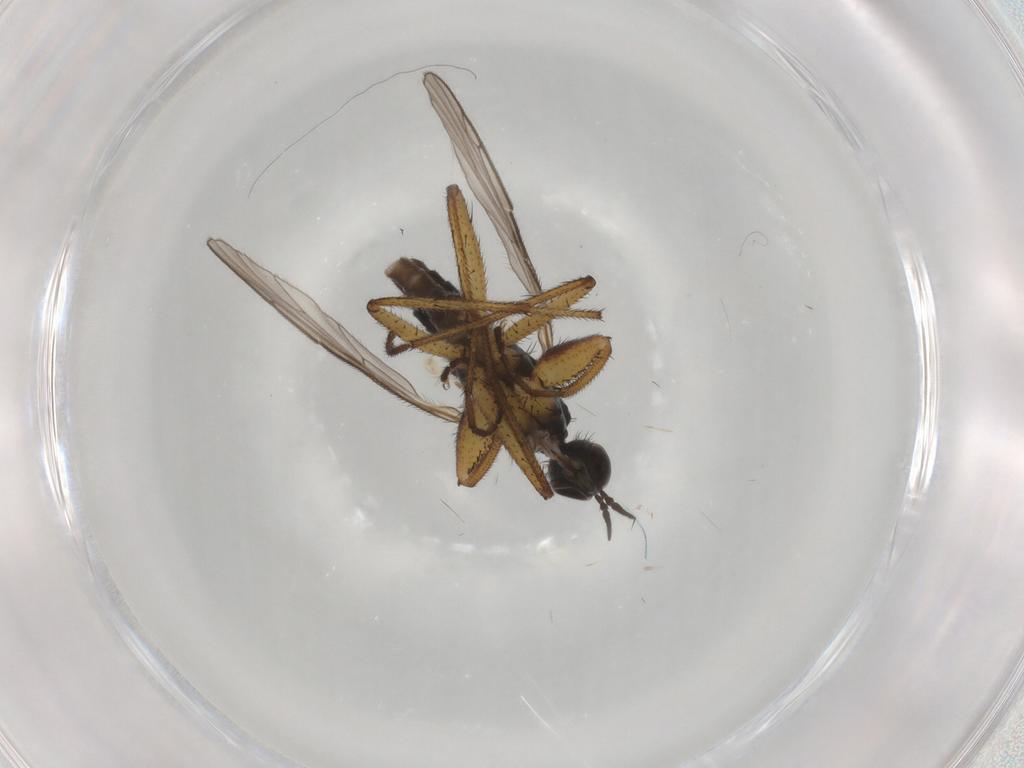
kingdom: Animalia
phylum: Arthropoda
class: Insecta
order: Diptera
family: Empididae
